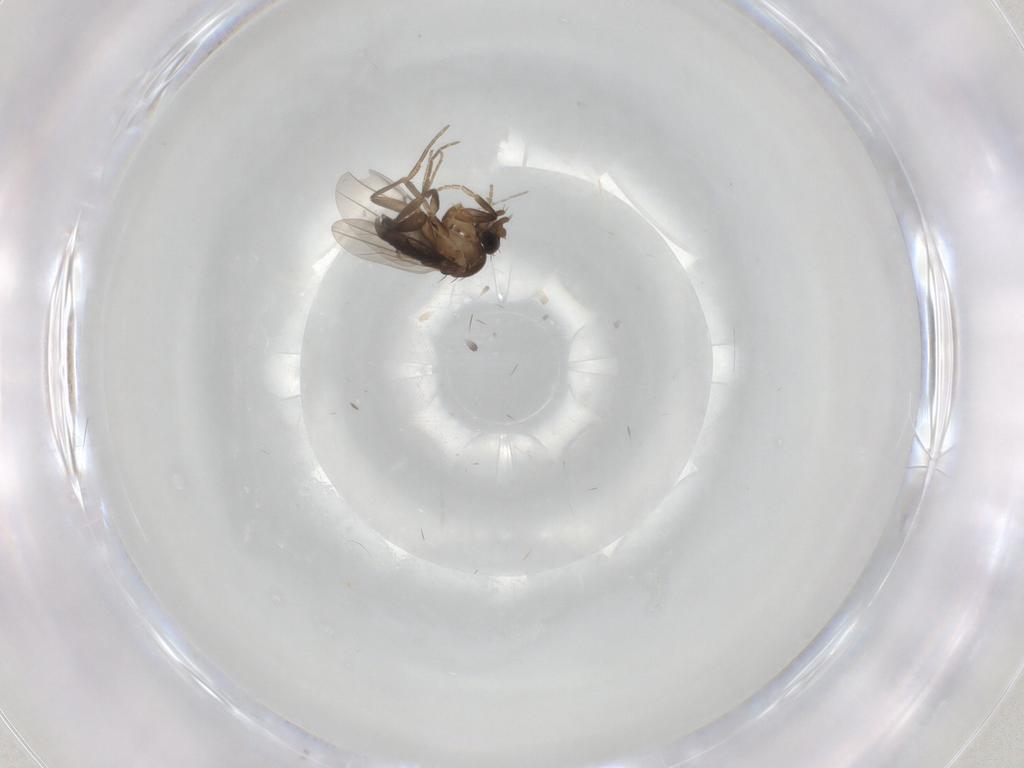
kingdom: Animalia
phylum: Arthropoda
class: Insecta
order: Diptera
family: Phoridae
